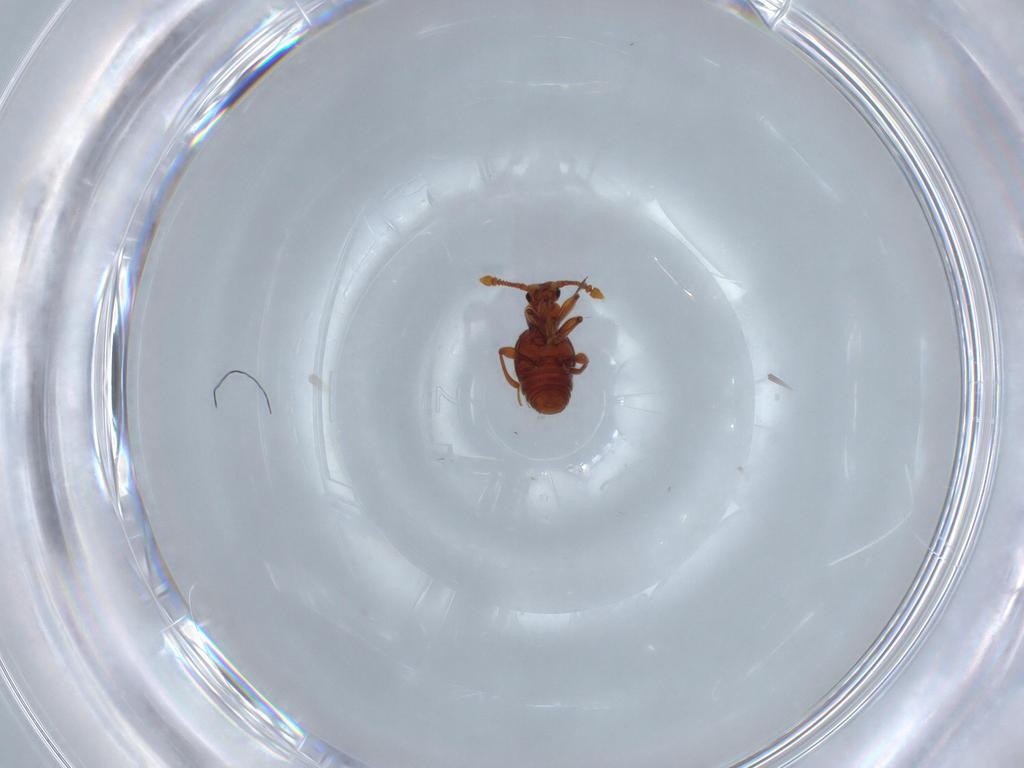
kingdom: Animalia
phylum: Arthropoda
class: Insecta
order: Coleoptera
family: Staphylinidae
